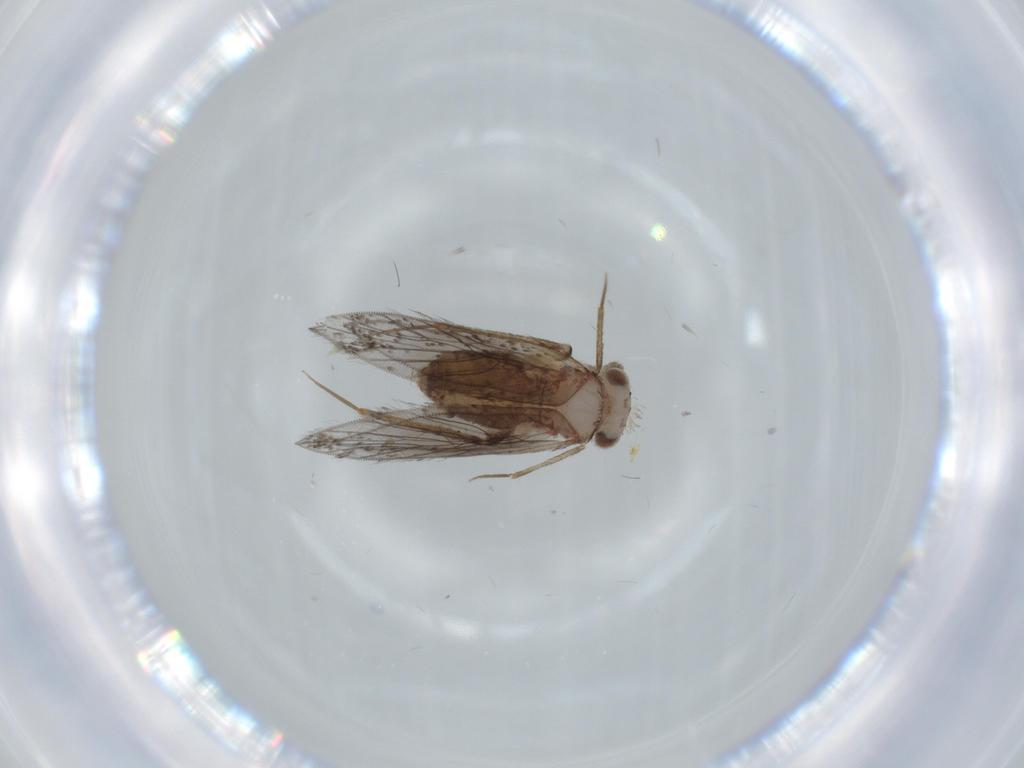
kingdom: Animalia
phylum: Arthropoda
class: Insecta
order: Psocodea
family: Lepidopsocidae
